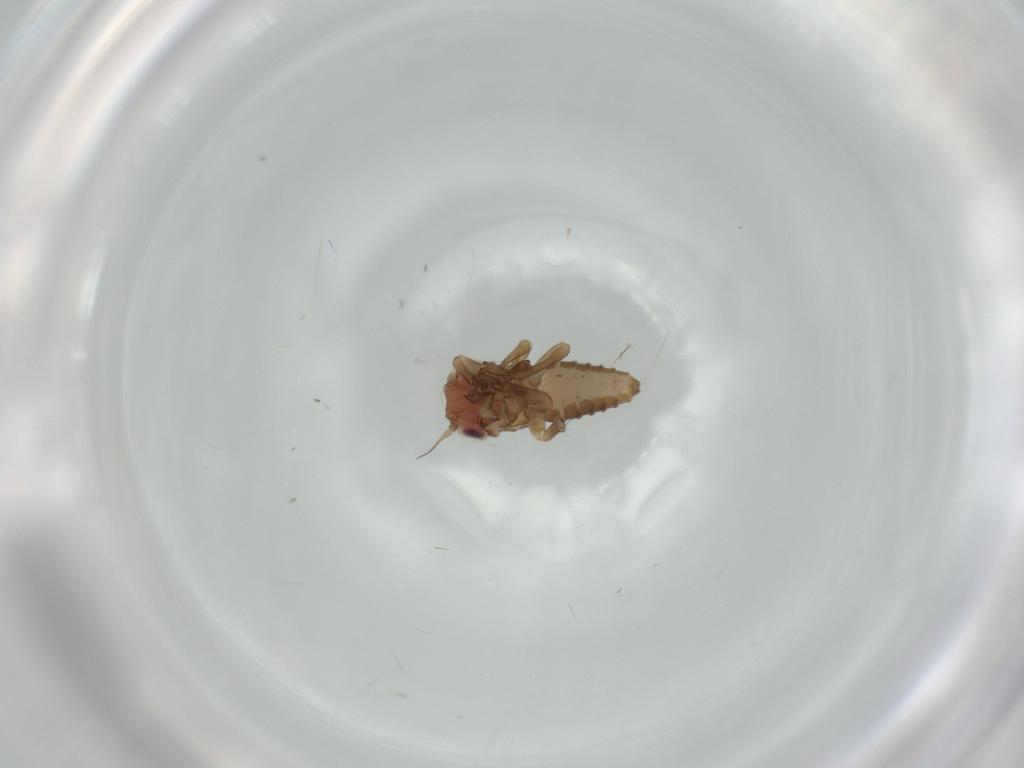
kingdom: Animalia
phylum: Arthropoda
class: Insecta
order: Hemiptera
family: Cicadellidae
